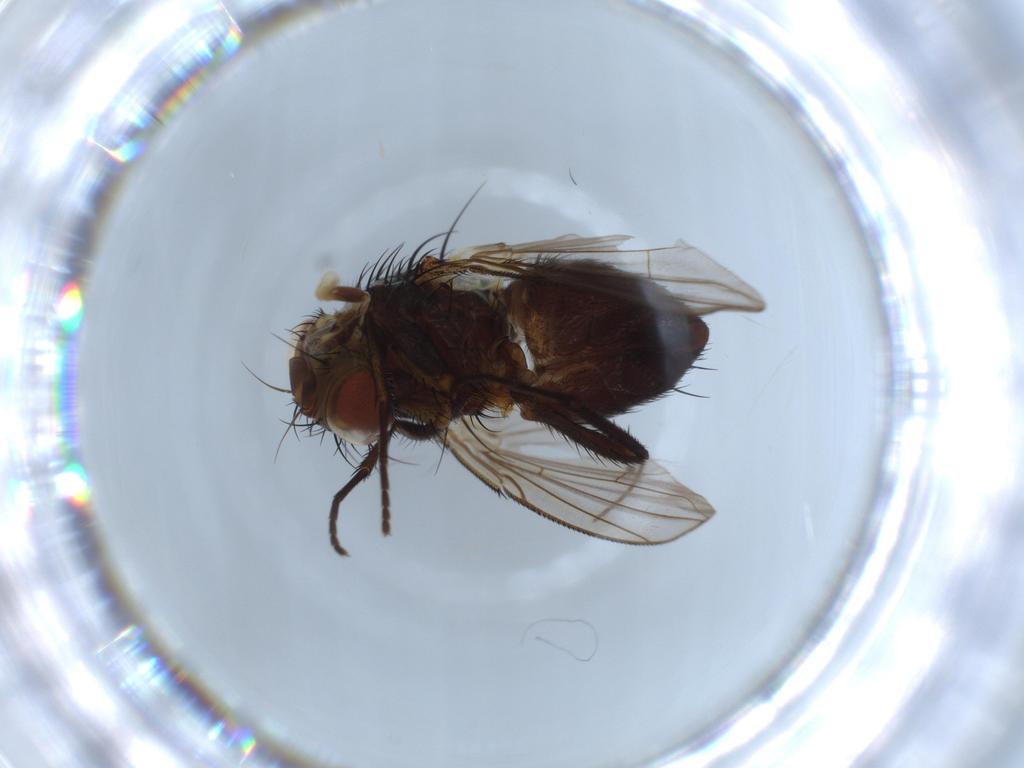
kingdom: Animalia
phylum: Arthropoda
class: Insecta
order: Diptera
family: Tachinidae
